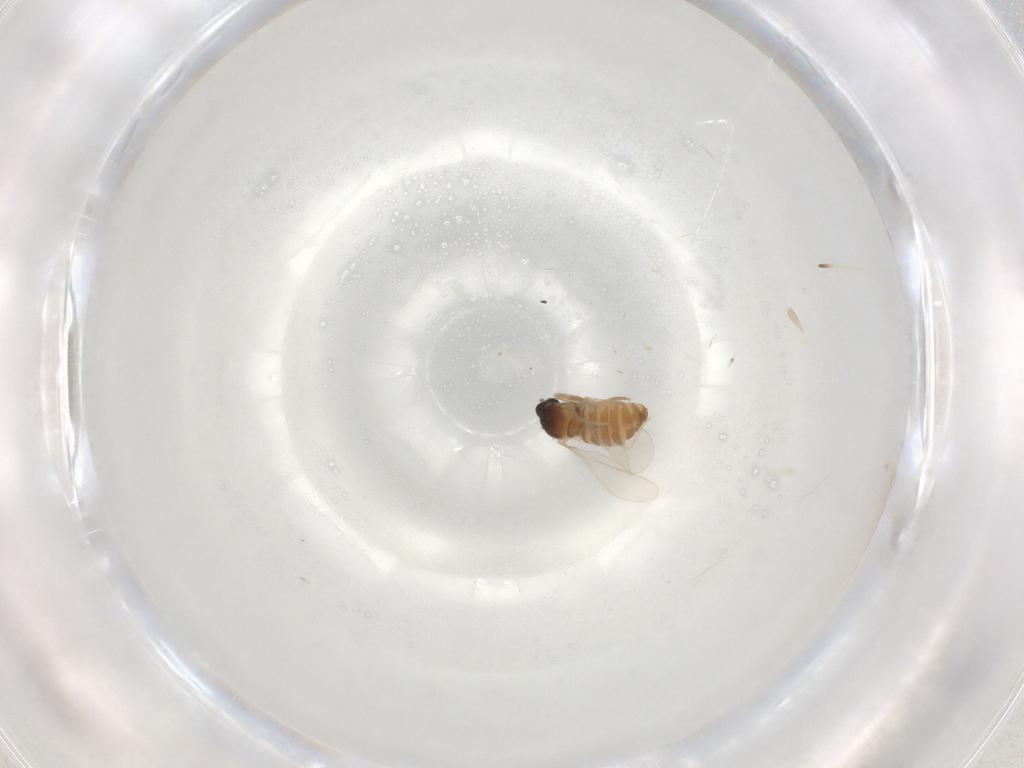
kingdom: Animalia
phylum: Arthropoda
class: Insecta
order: Diptera
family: Cecidomyiidae
